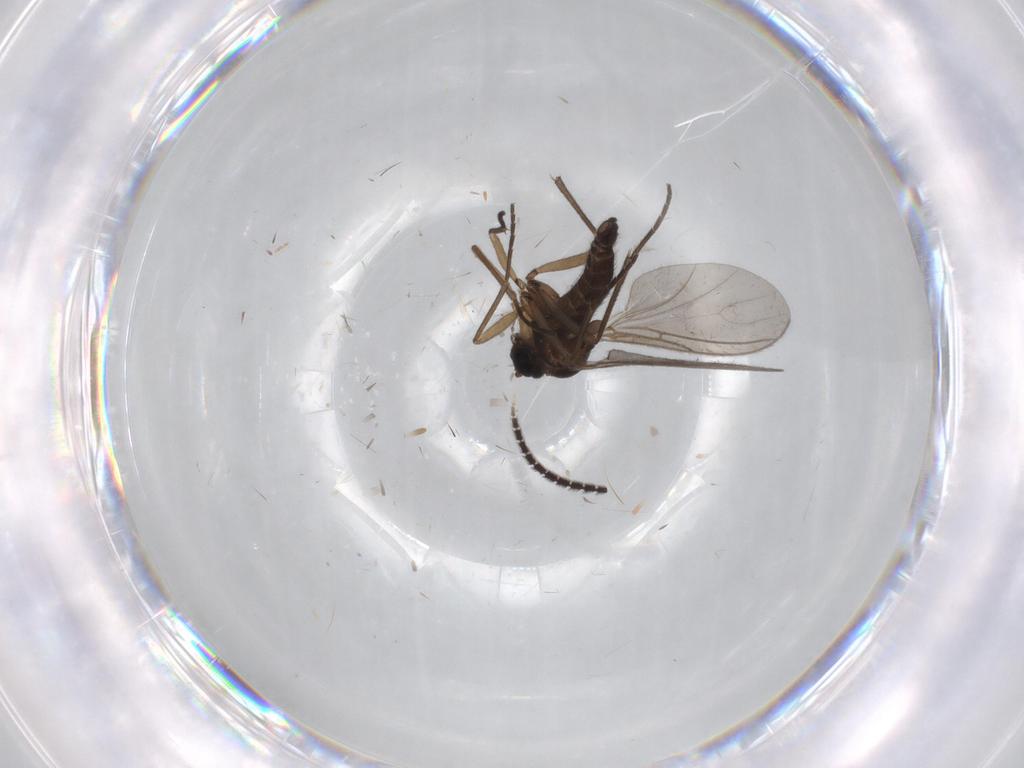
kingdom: Animalia
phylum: Arthropoda
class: Insecta
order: Diptera
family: Sciaridae
